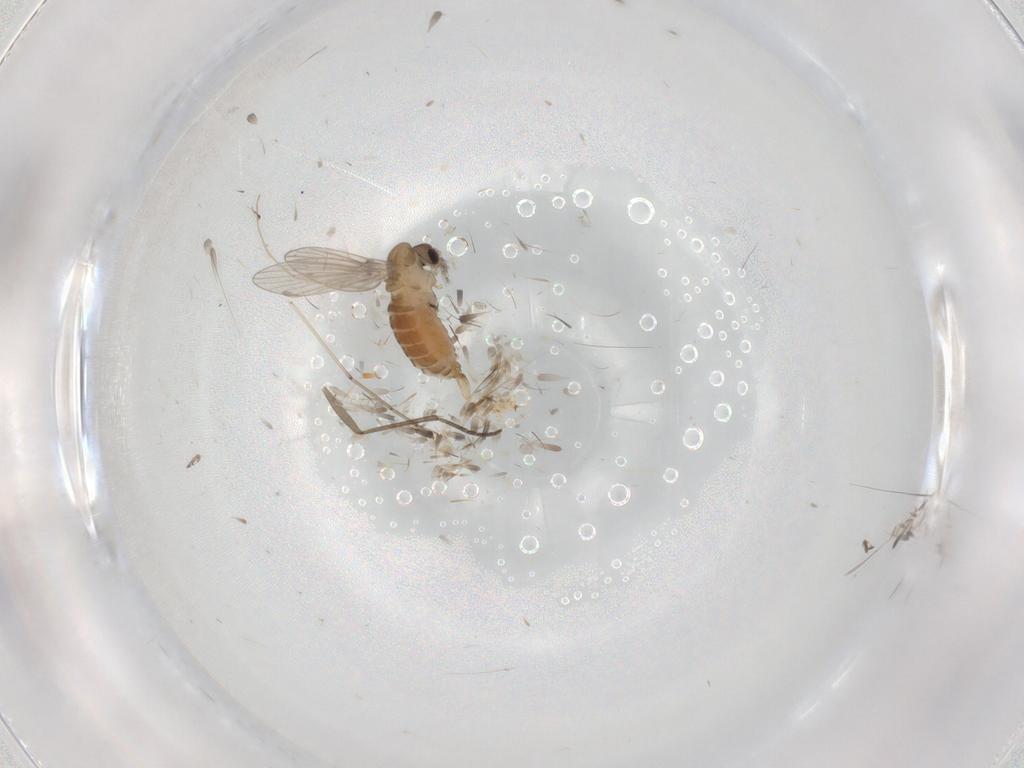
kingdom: Animalia
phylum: Arthropoda
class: Insecta
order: Diptera
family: Sciaridae
